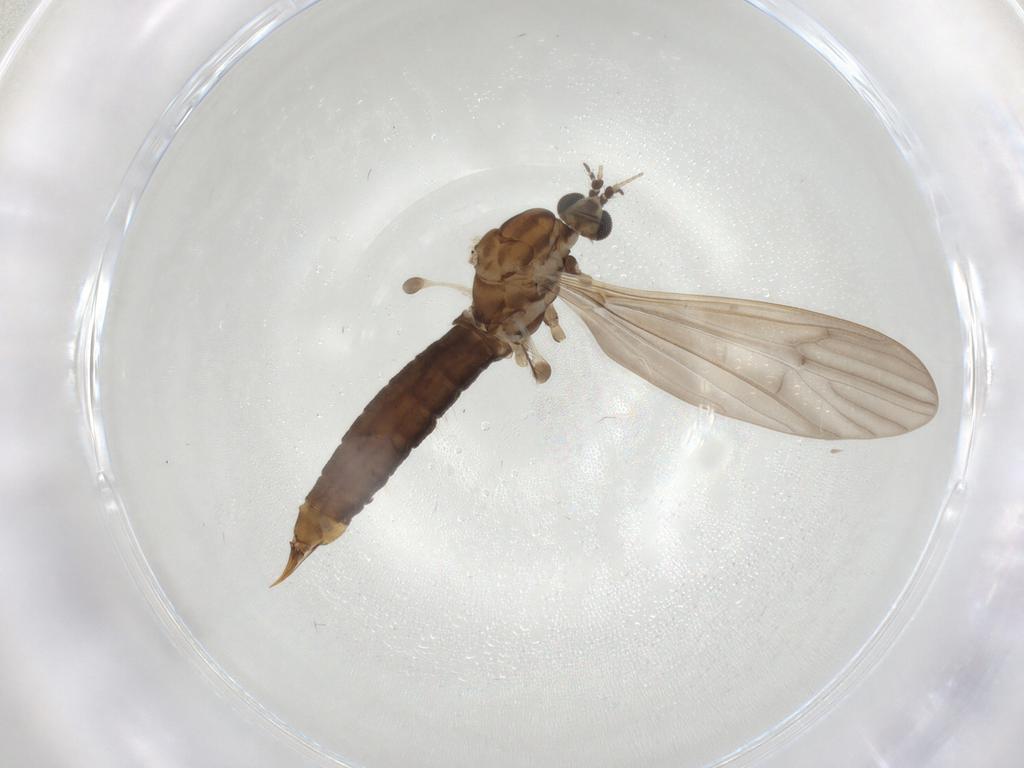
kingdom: Animalia
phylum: Arthropoda
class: Insecta
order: Diptera
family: Limoniidae
